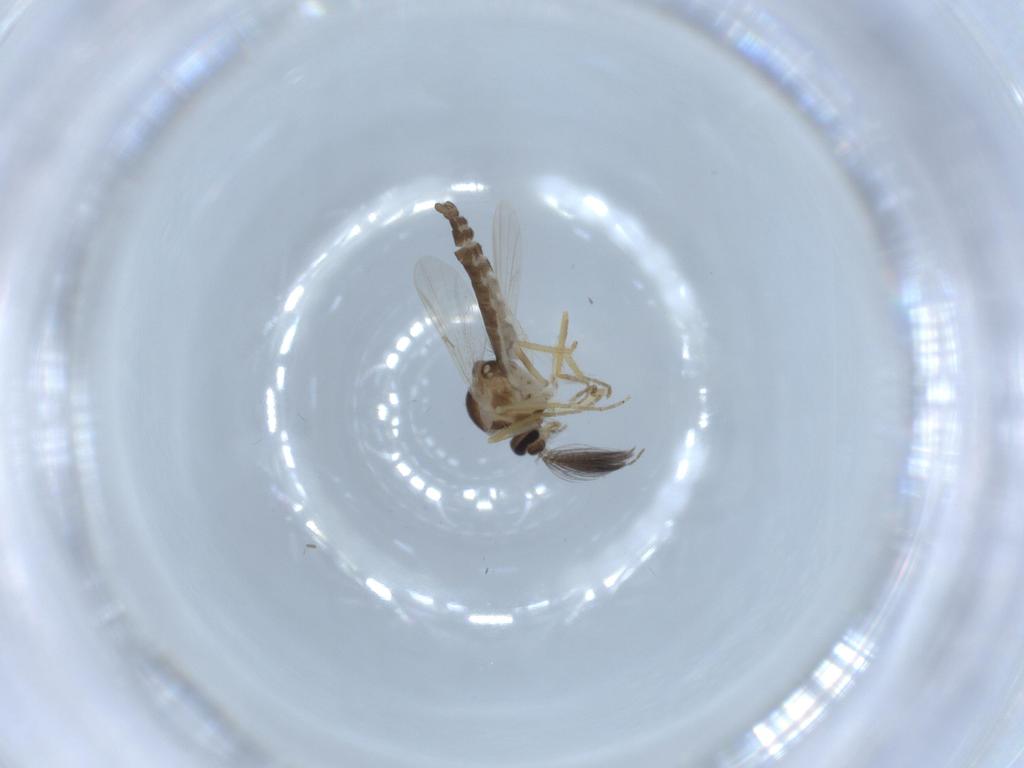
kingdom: Animalia
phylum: Arthropoda
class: Insecta
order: Diptera
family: Ceratopogonidae
